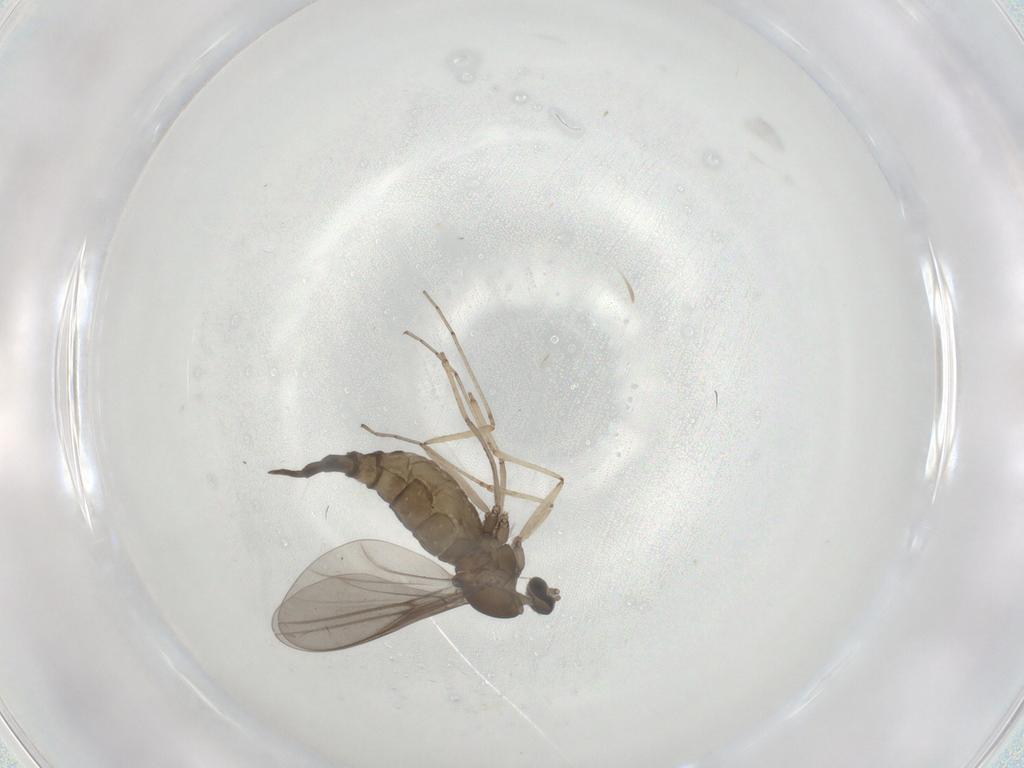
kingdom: Animalia
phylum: Arthropoda
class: Insecta
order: Diptera
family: Cecidomyiidae
